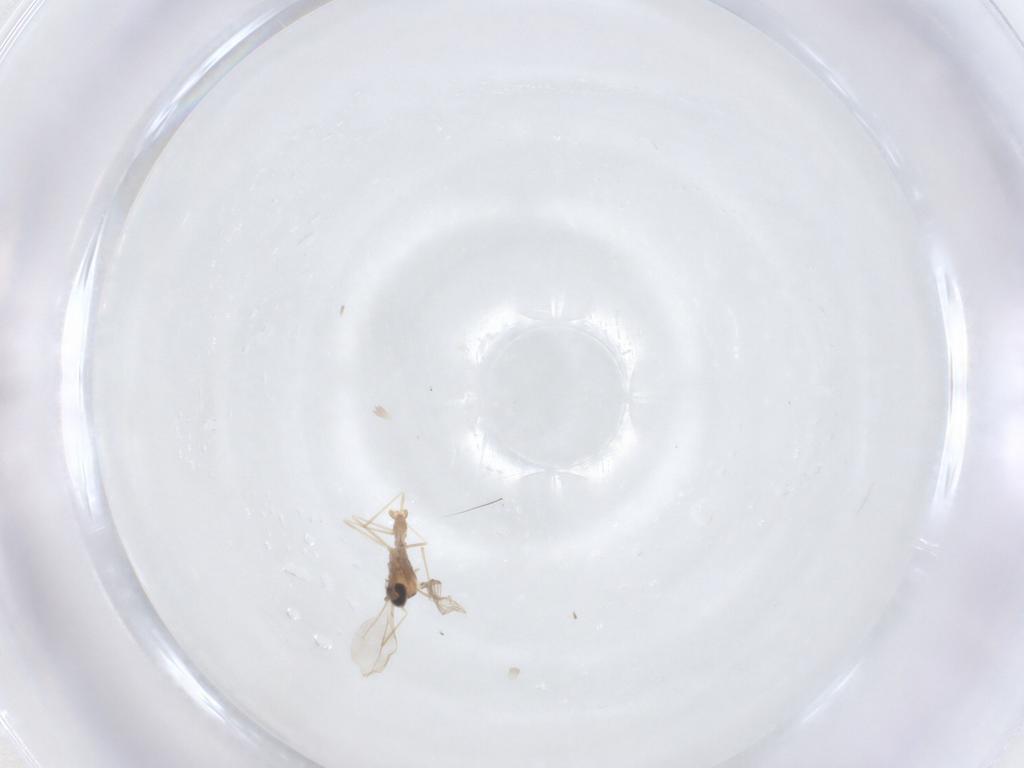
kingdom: Animalia
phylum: Arthropoda
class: Insecta
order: Diptera
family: Cecidomyiidae
